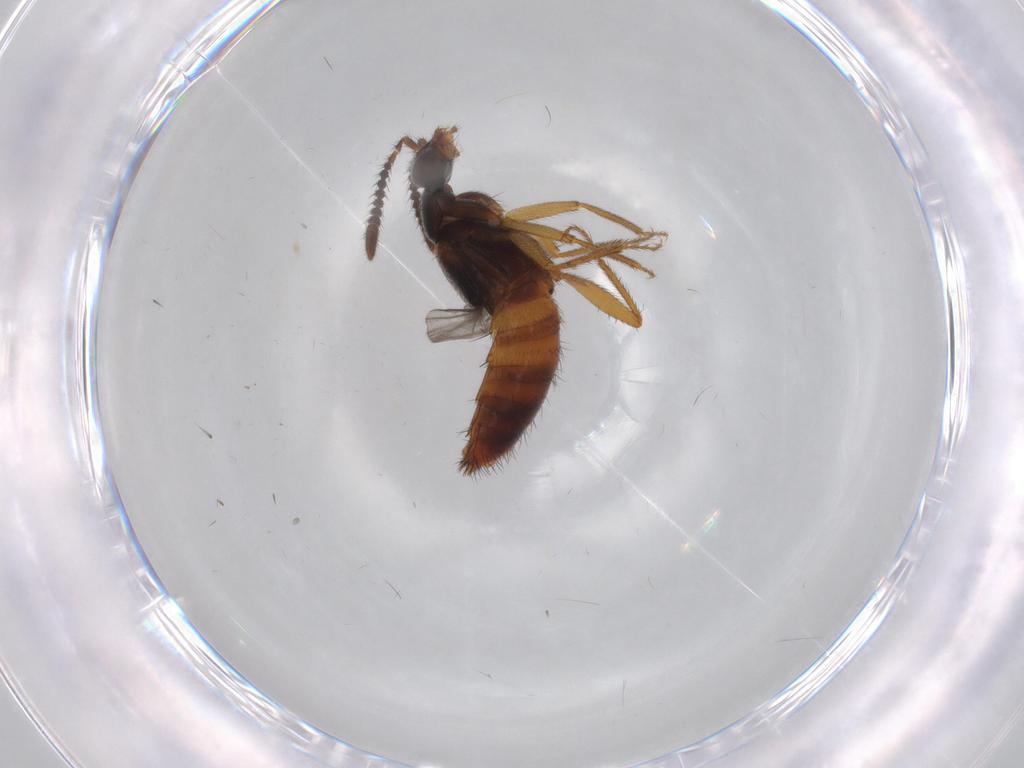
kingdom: Animalia
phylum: Arthropoda
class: Insecta
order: Coleoptera
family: Staphylinidae
